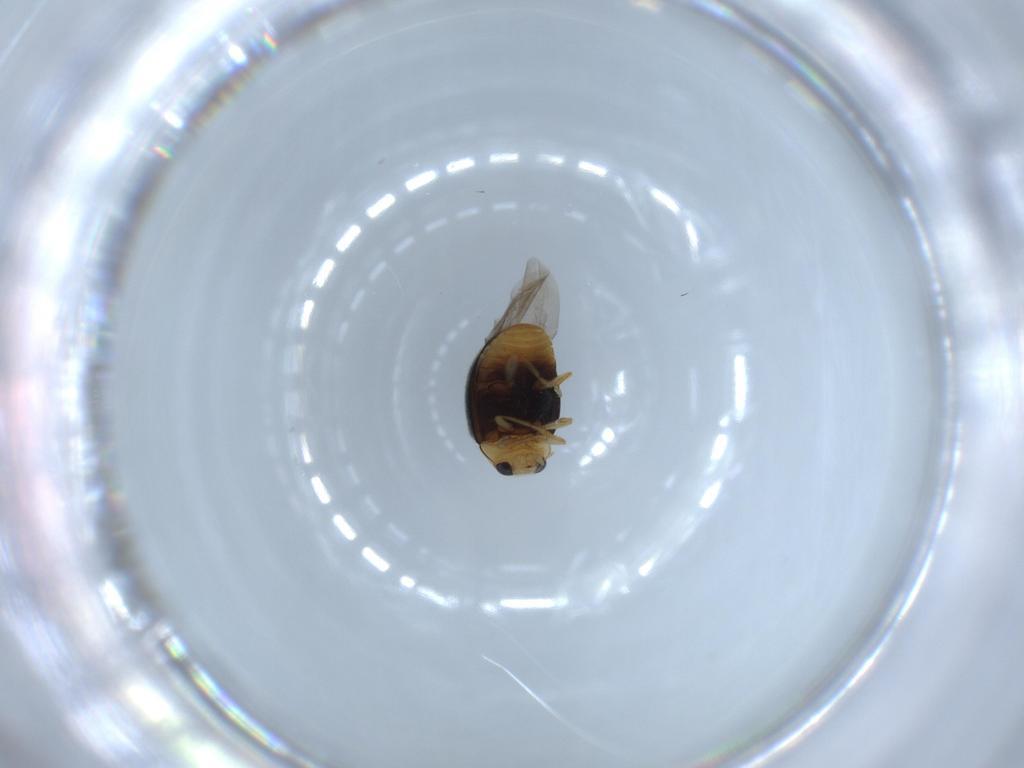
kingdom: Animalia
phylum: Arthropoda
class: Insecta
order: Coleoptera
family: Coccinellidae
